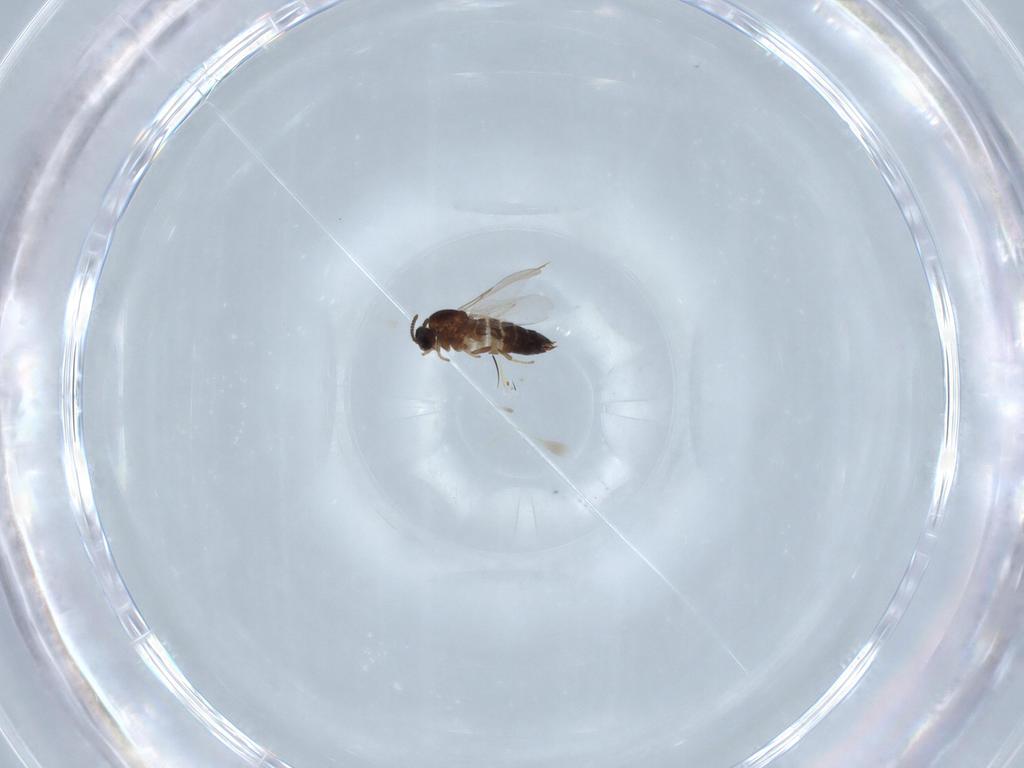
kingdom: Animalia
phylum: Arthropoda
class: Insecta
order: Diptera
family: Scatopsidae
